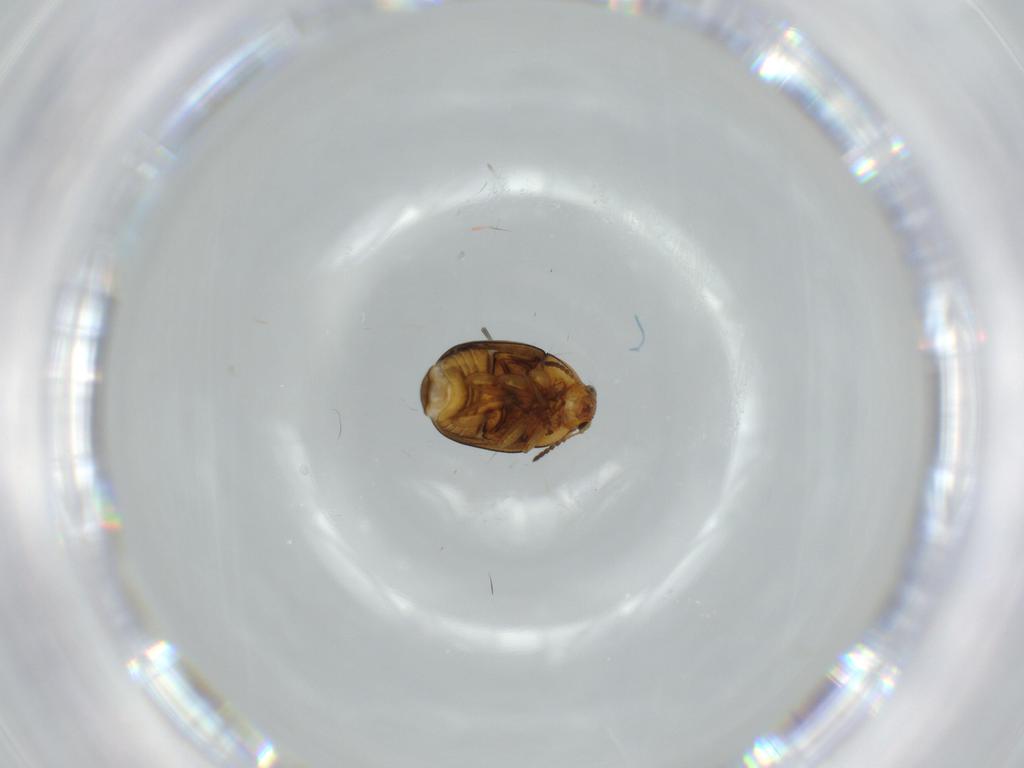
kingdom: Animalia
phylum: Arthropoda
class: Insecta
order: Coleoptera
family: Chrysomelidae
